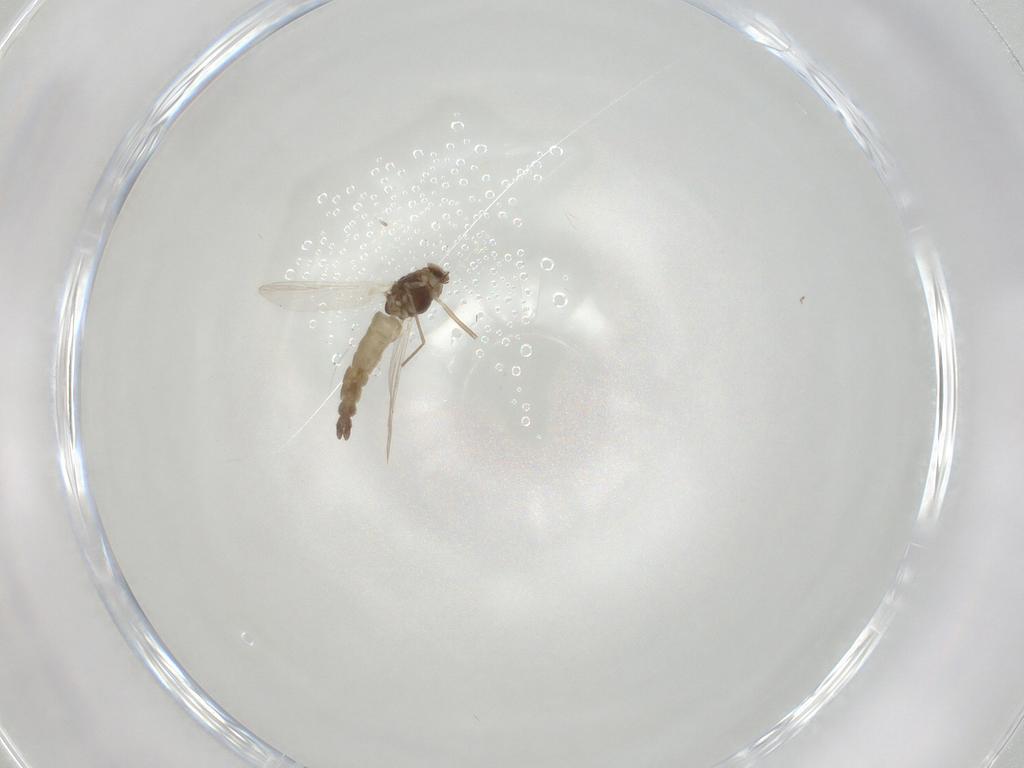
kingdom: Animalia
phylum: Arthropoda
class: Insecta
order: Diptera
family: Chironomidae
